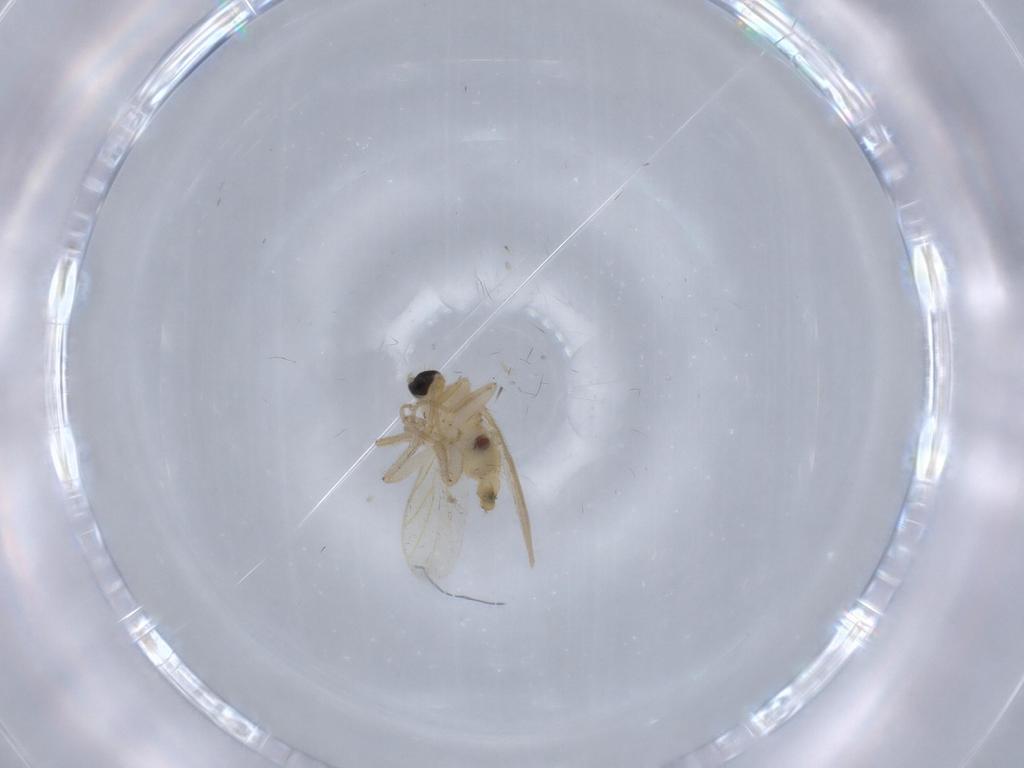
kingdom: Animalia
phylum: Arthropoda
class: Insecta
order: Diptera
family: Hybotidae
